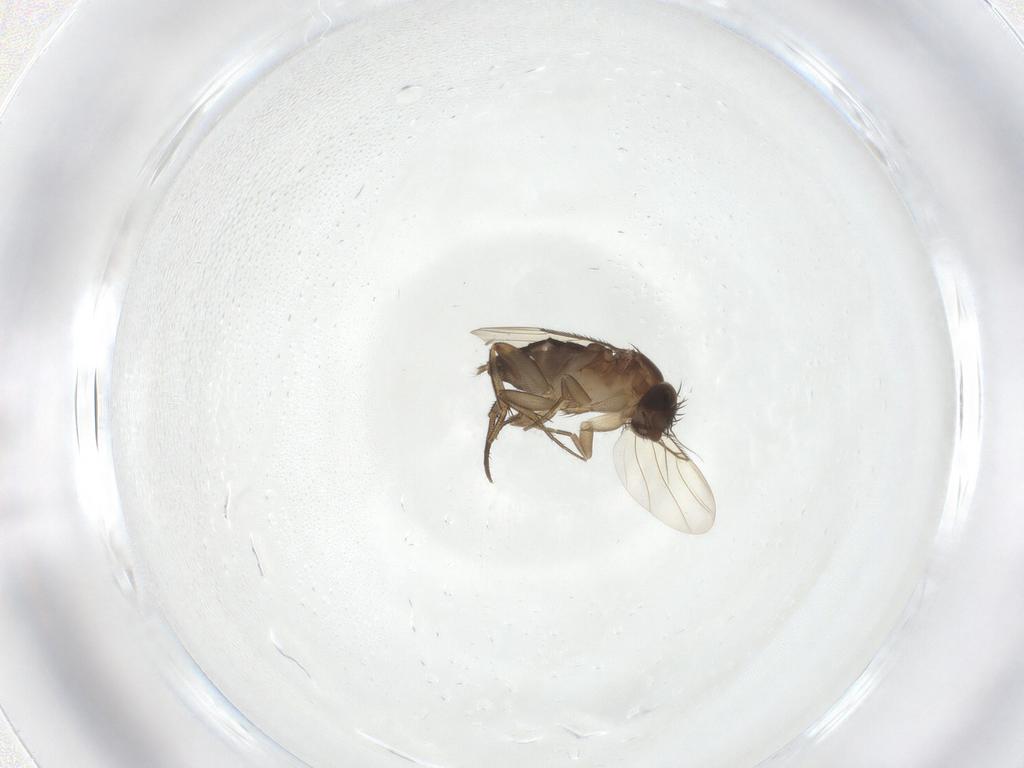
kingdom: Animalia
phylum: Arthropoda
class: Insecta
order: Diptera
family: Phoridae
